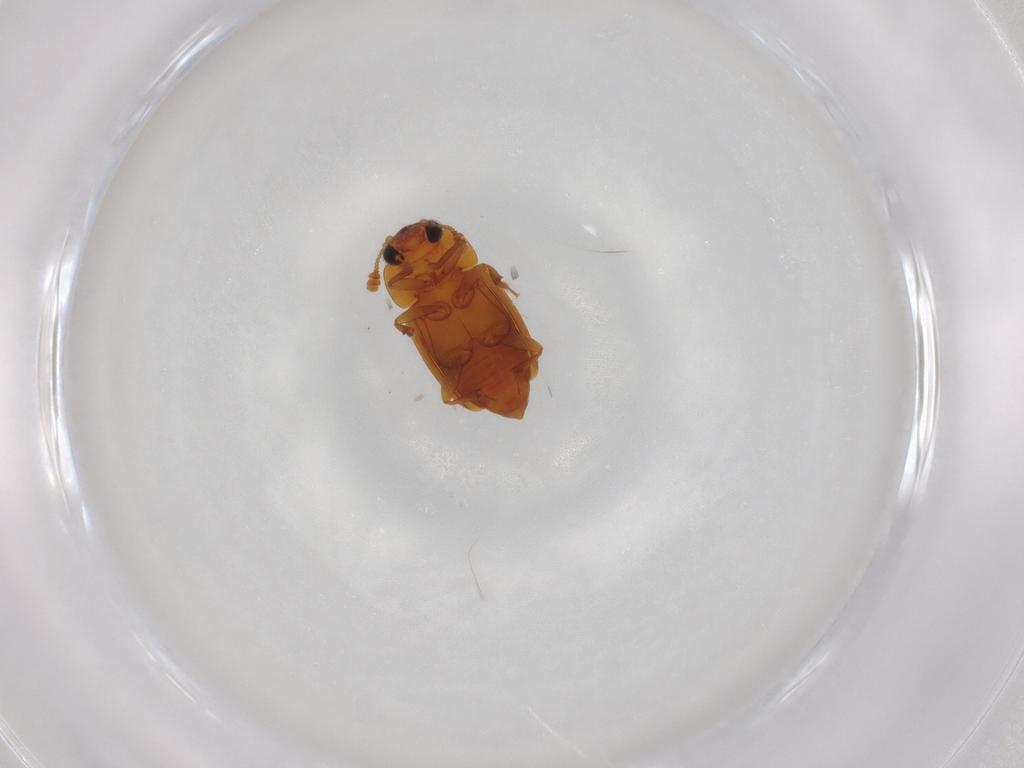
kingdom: Animalia
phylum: Arthropoda
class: Insecta
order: Coleoptera
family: Nitidulidae
